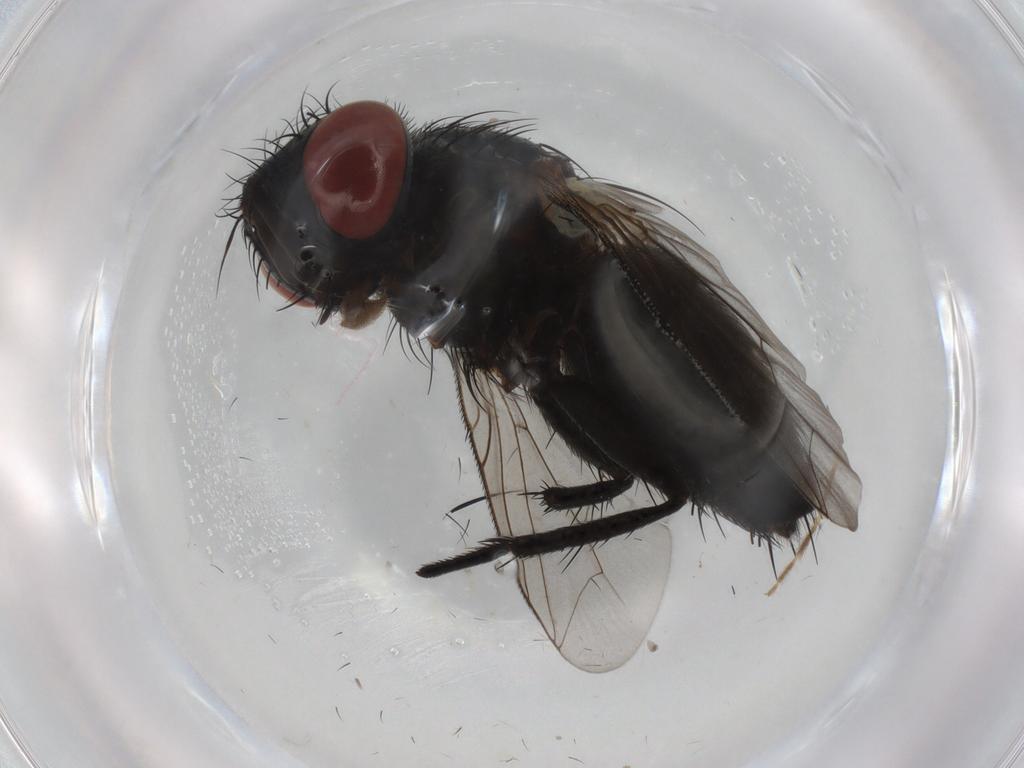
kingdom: Animalia
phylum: Arthropoda
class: Insecta
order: Diptera
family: Sarcophagidae
